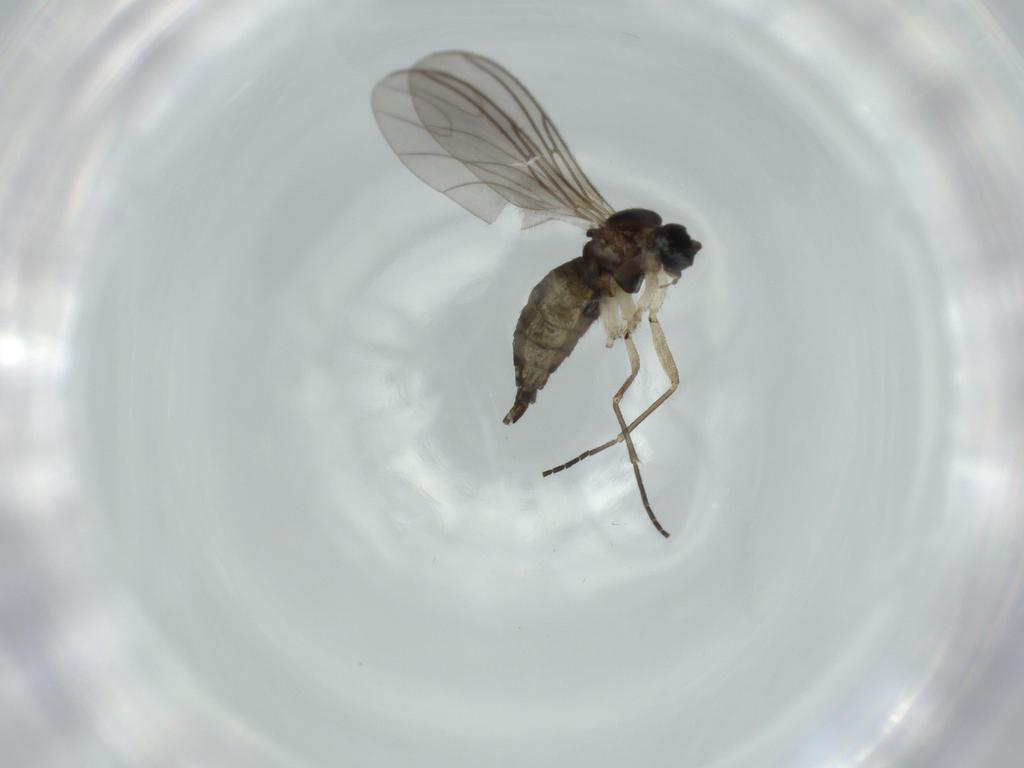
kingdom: Animalia
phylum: Arthropoda
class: Insecta
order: Diptera
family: Phoridae
